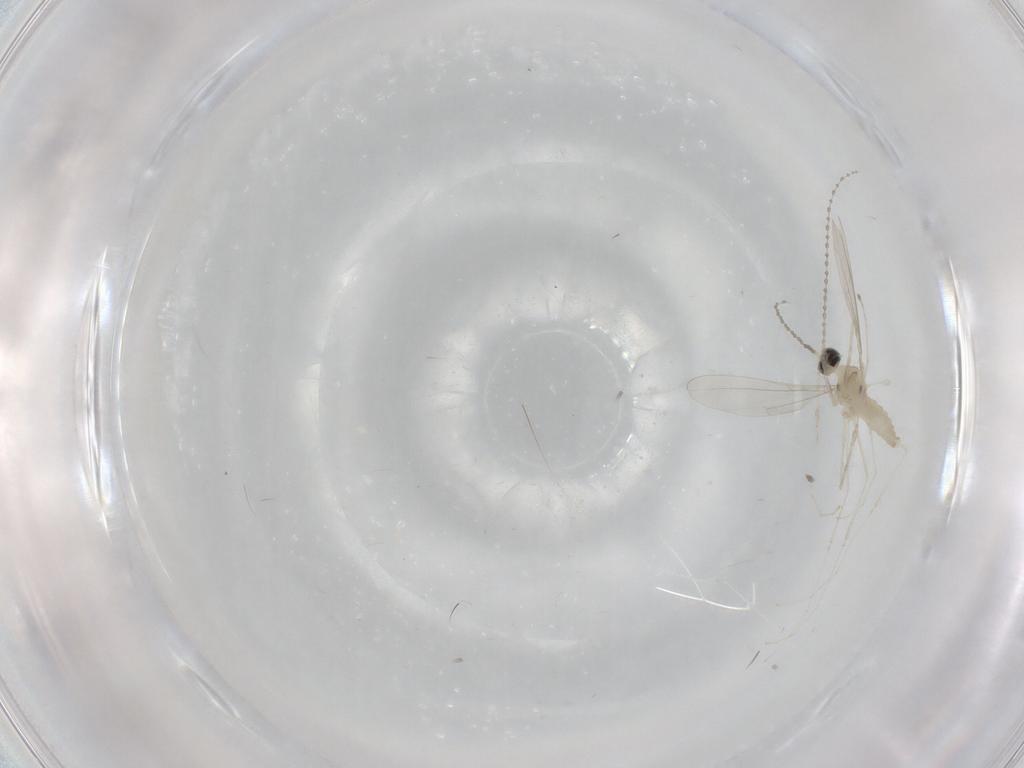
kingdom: Animalia
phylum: Arthropoda
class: Insecta
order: Diptera
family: Cecidomyiidae
